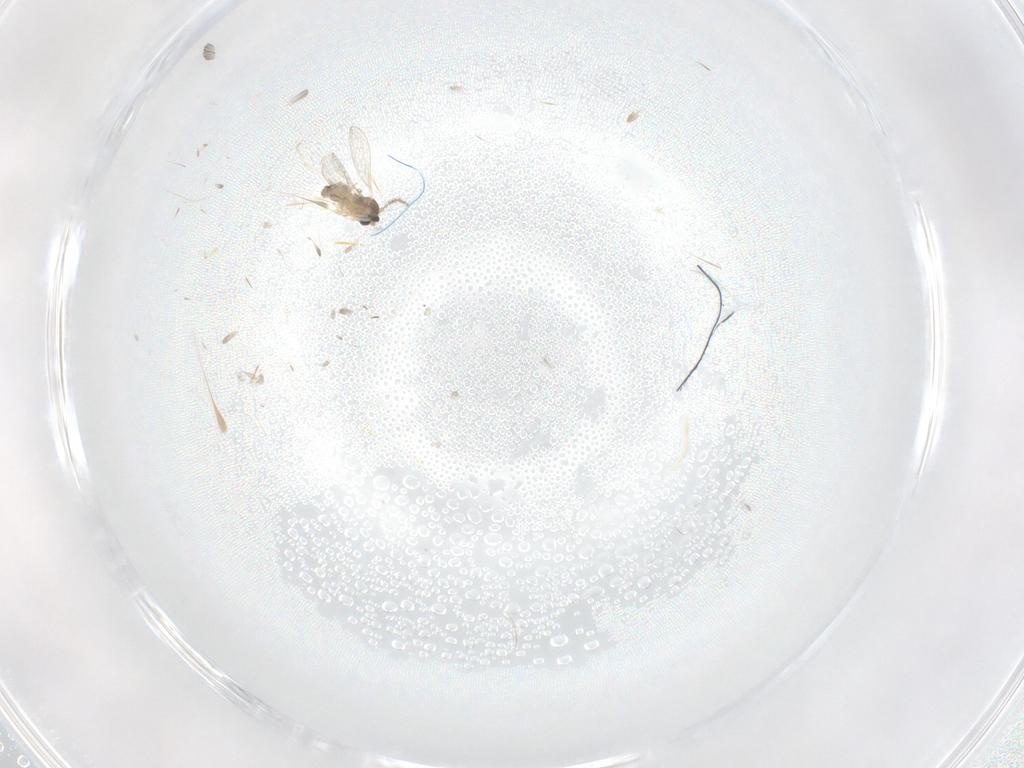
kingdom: Animalia
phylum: Arthropoda
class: Insecta
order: Diptera
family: Cecidomyiidae
